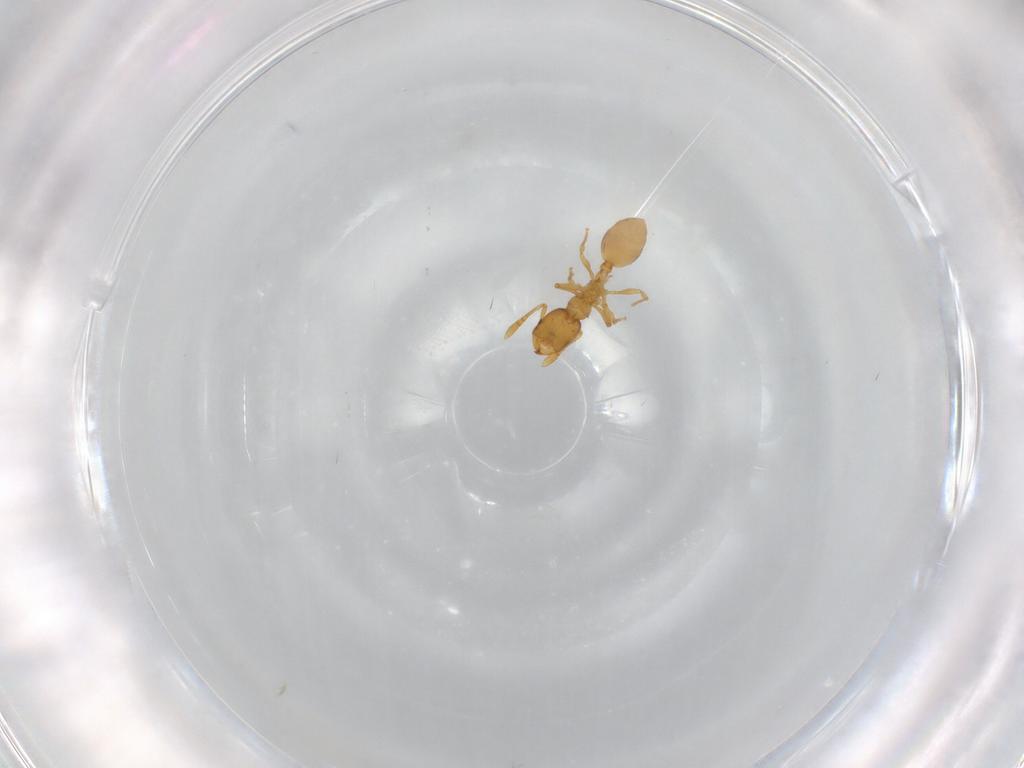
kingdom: Animalia
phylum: Arthropoda
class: Insecta
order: Hymenoptera
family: Formicidae
